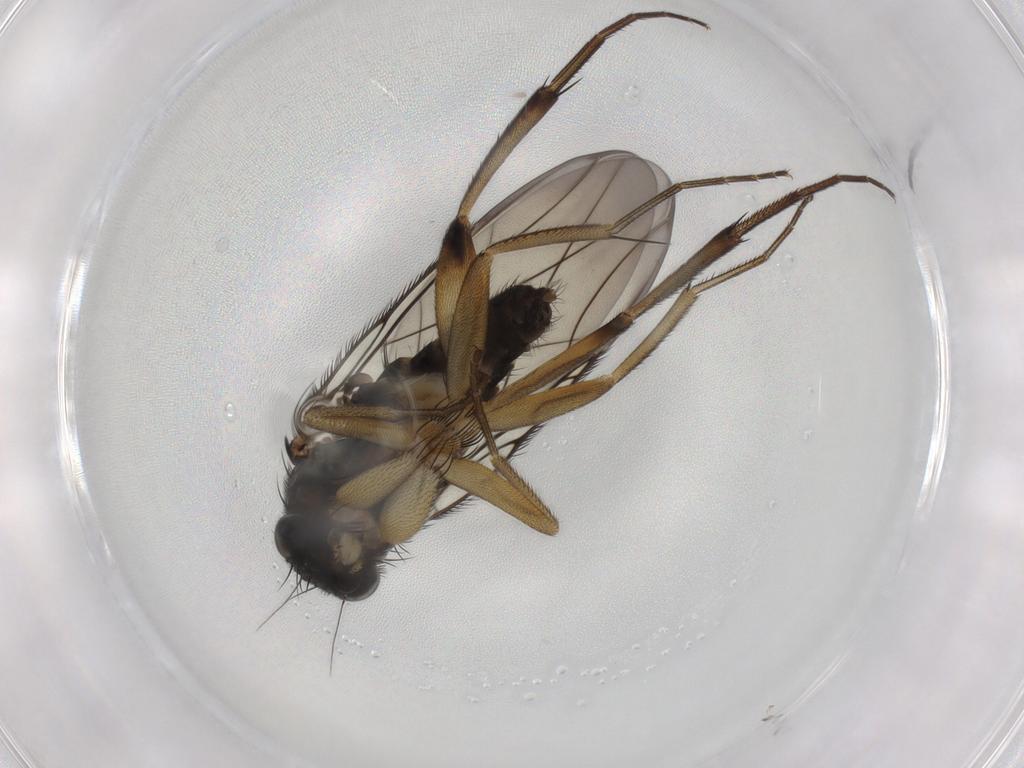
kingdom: Animalia
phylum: Arthropoda
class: Insecta
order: Diptera
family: Phoridae
